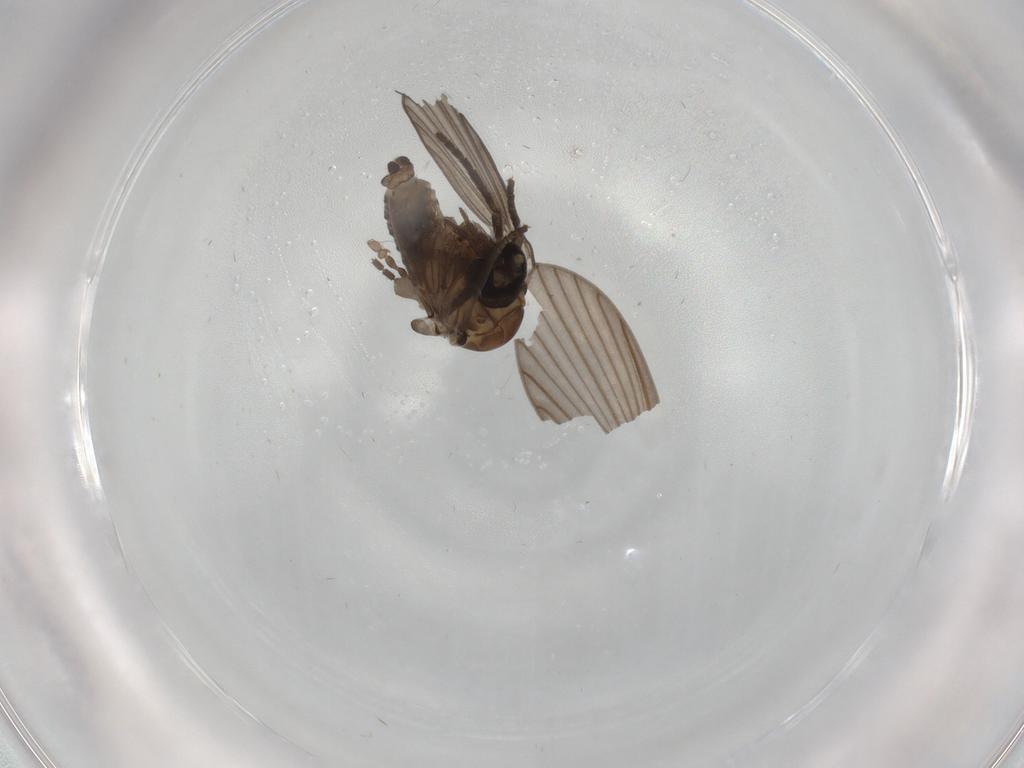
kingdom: Animalia
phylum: Arthropoda
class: Insecta
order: Diptera
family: Psychodidae
